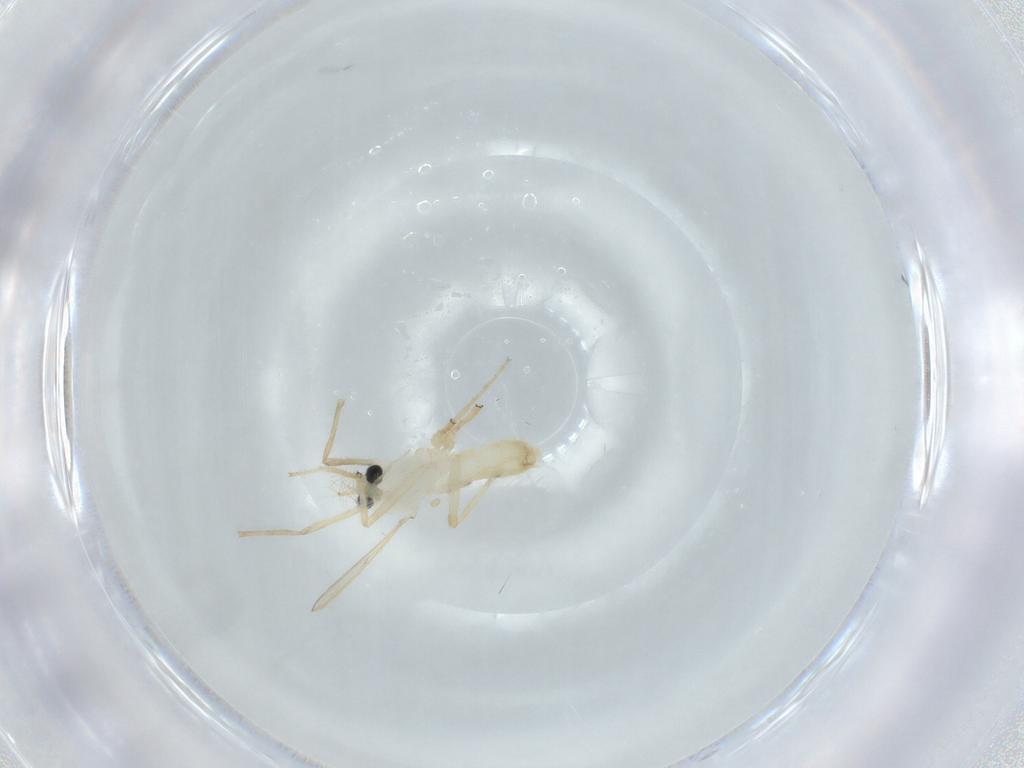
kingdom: Animalia
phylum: Arthropoda
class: Insecta
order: Diptera
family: Chironomidae
